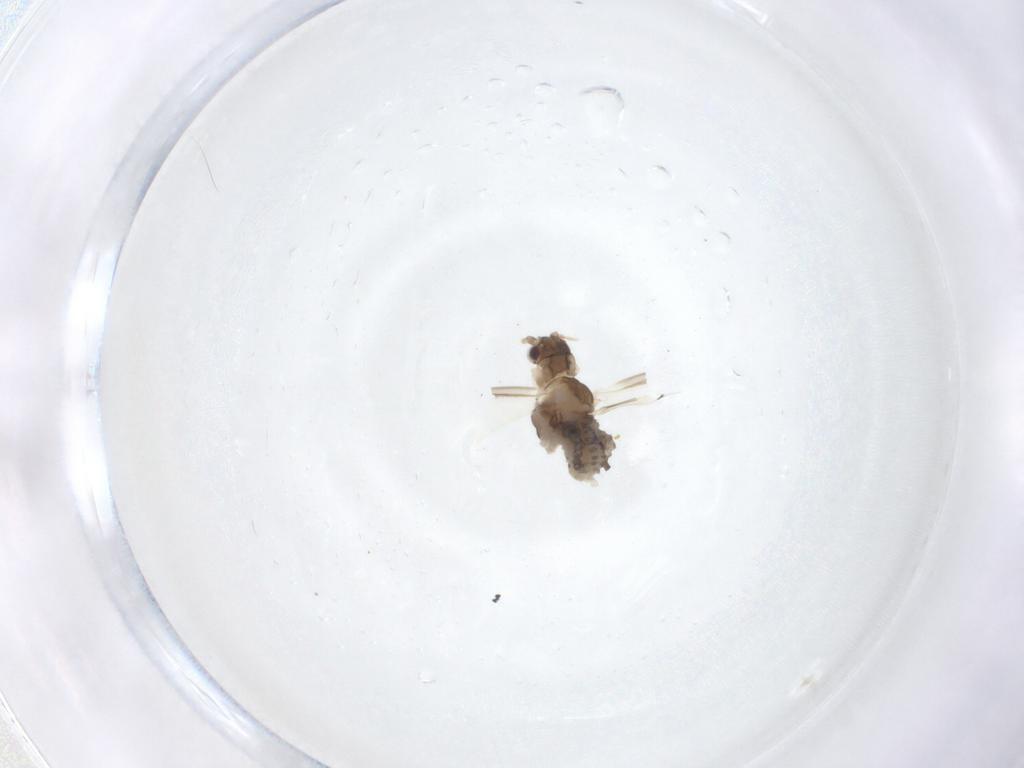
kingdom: Animalia
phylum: Arthropoda
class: Insecta
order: Hemiptera
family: Aphididae
